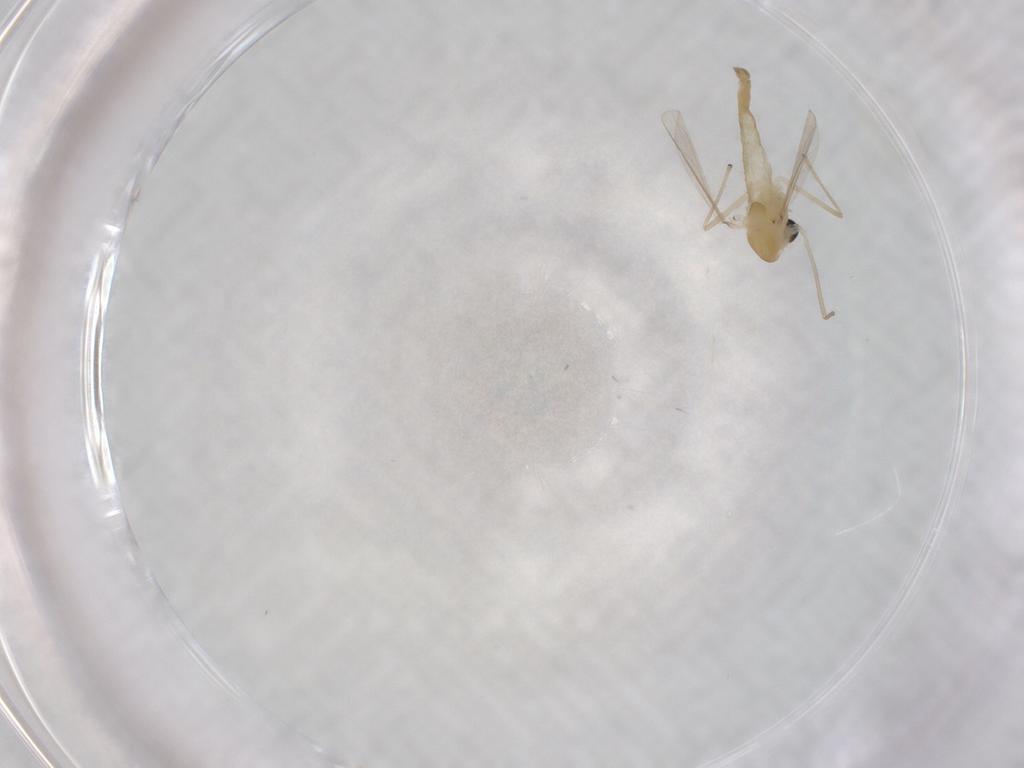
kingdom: Animalia
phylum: Arthropoda
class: Insecta
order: Diptera
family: Chironomidae
